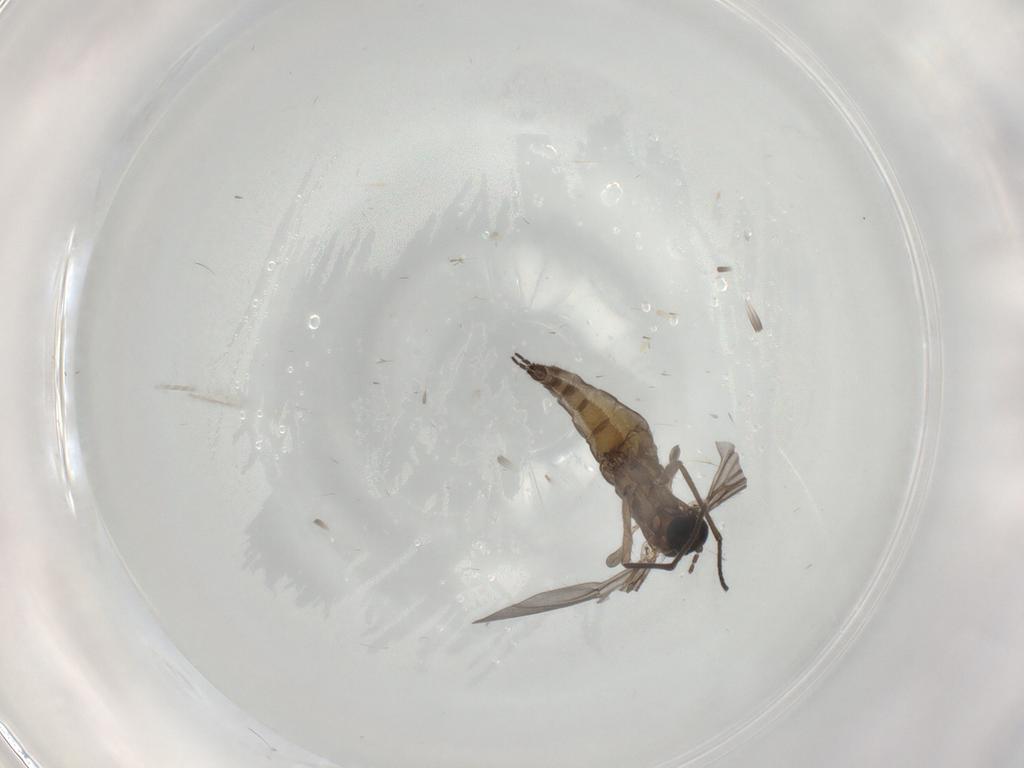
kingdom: Animalia
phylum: Arthropoda
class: Insecta
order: Diptera
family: Sciaridae
